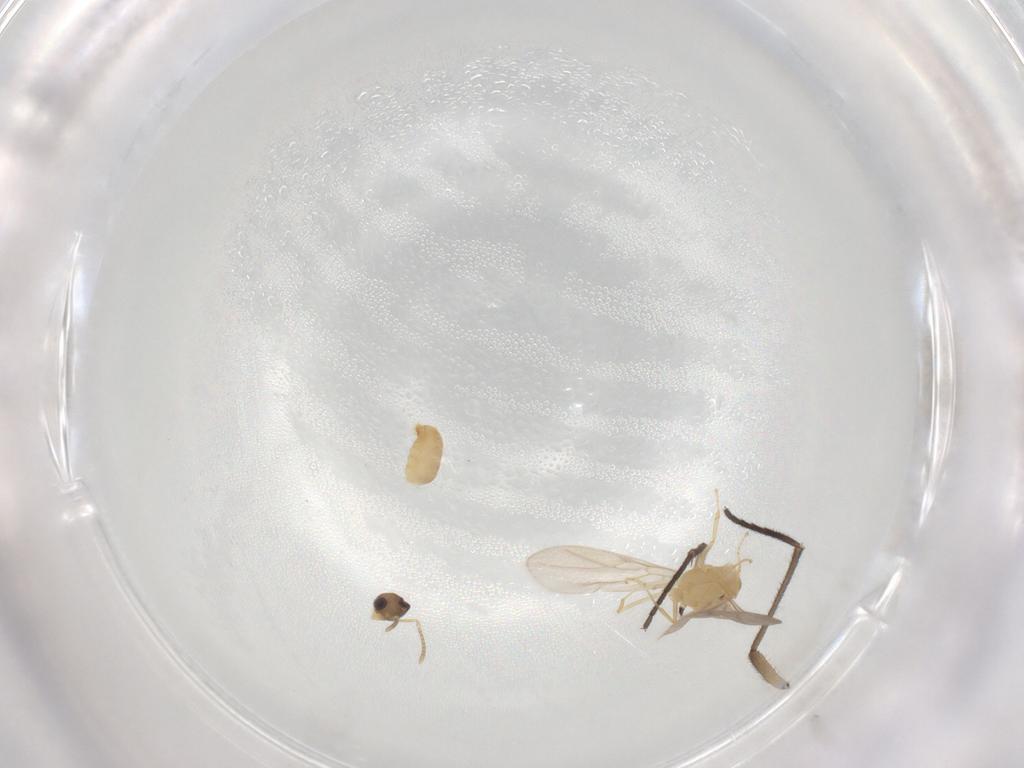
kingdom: Animalia
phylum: Arthropoda
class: Insecta
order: Hymenoptera
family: Formicidae
